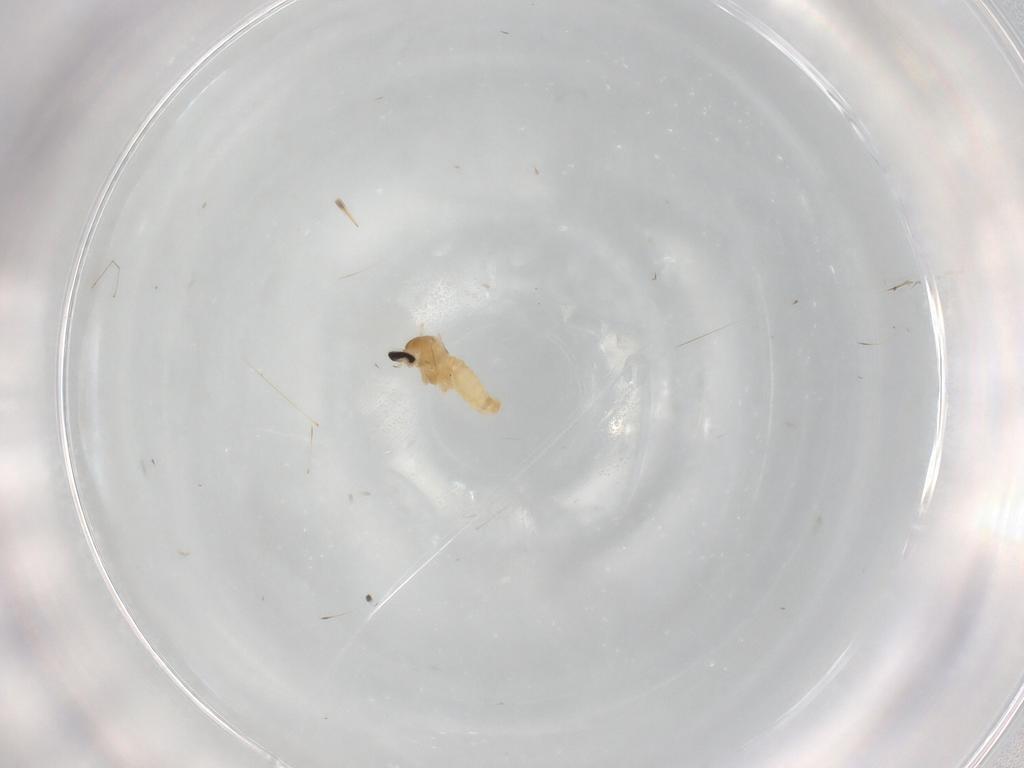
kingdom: Animalia
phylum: Arthropoda
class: Insecta
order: Diptera
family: Cecidomyiidae
